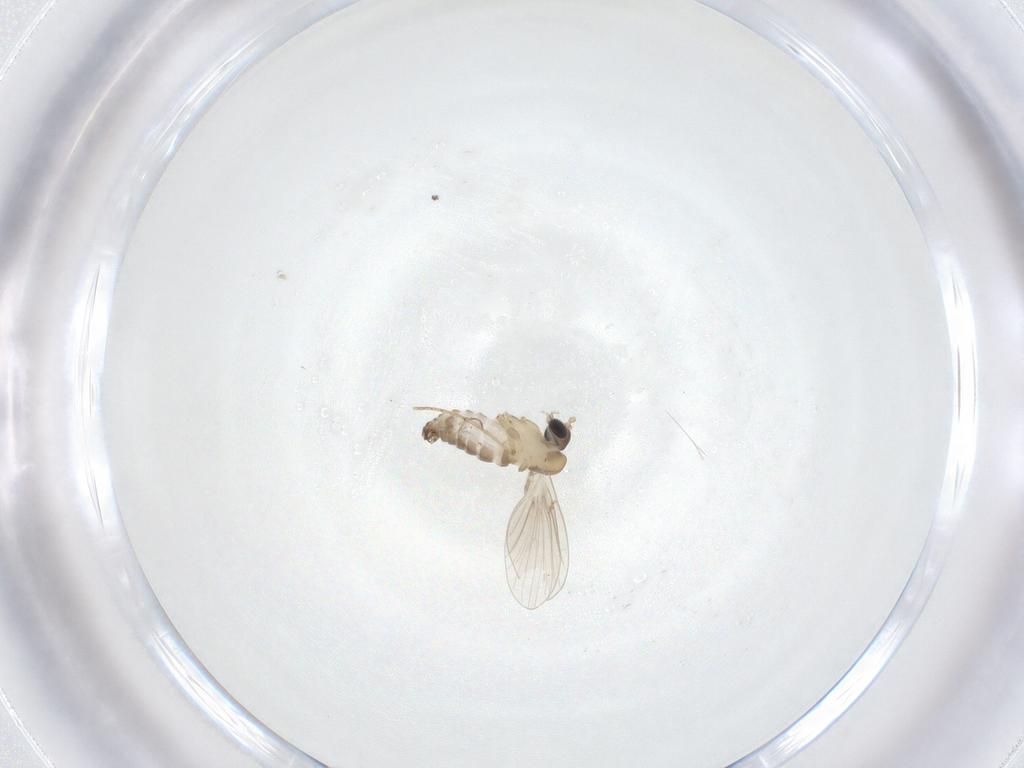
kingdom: Animalia
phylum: Arthropoda
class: Insecta
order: Diptera
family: Psychodidae
